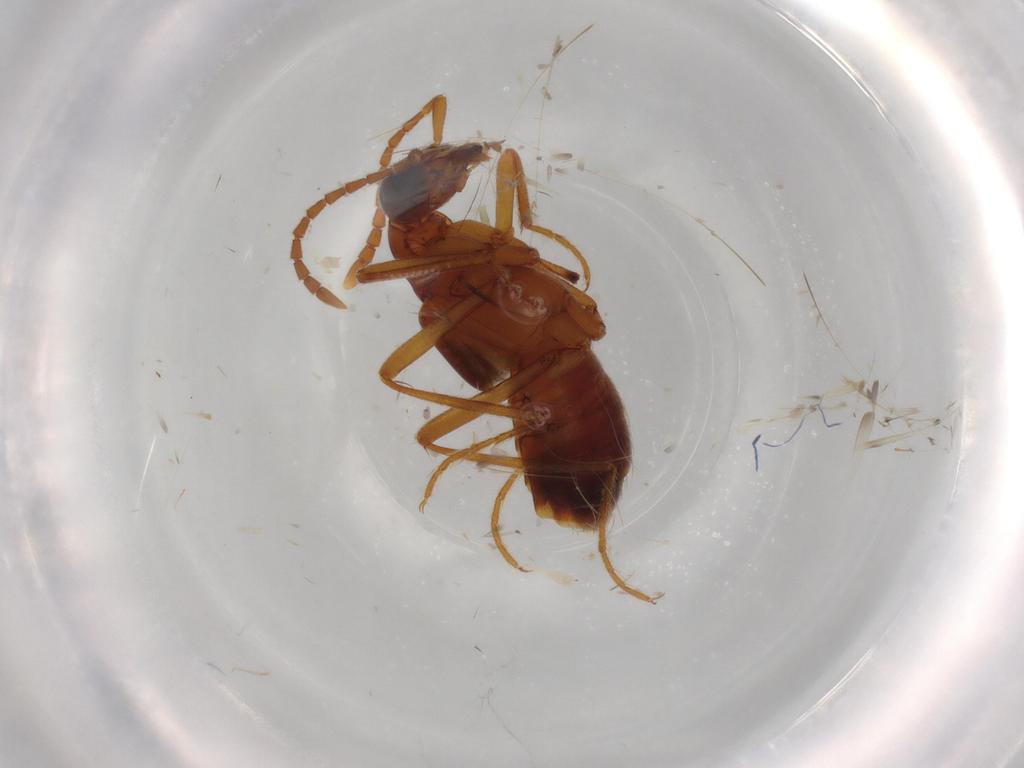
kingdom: Animalia
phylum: Arthropoda
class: Insecta
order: Coleoptera
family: Staphylinidae
